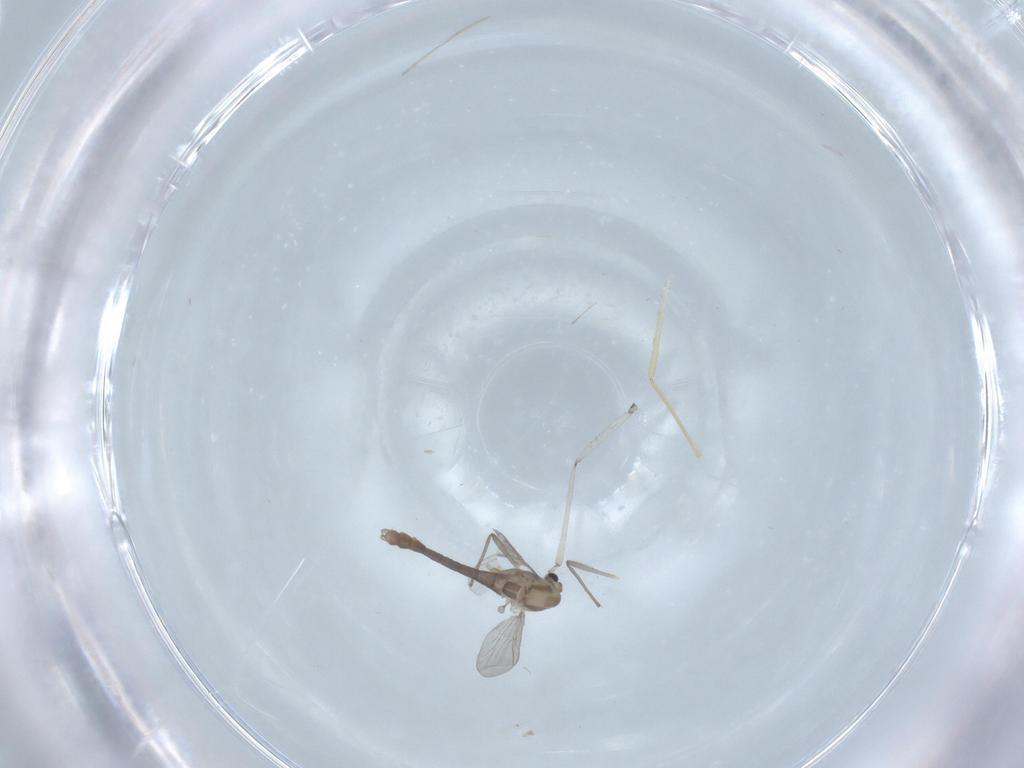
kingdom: Animalia
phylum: Arthropoda
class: Insecta
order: Diptera
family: Chironomidae
